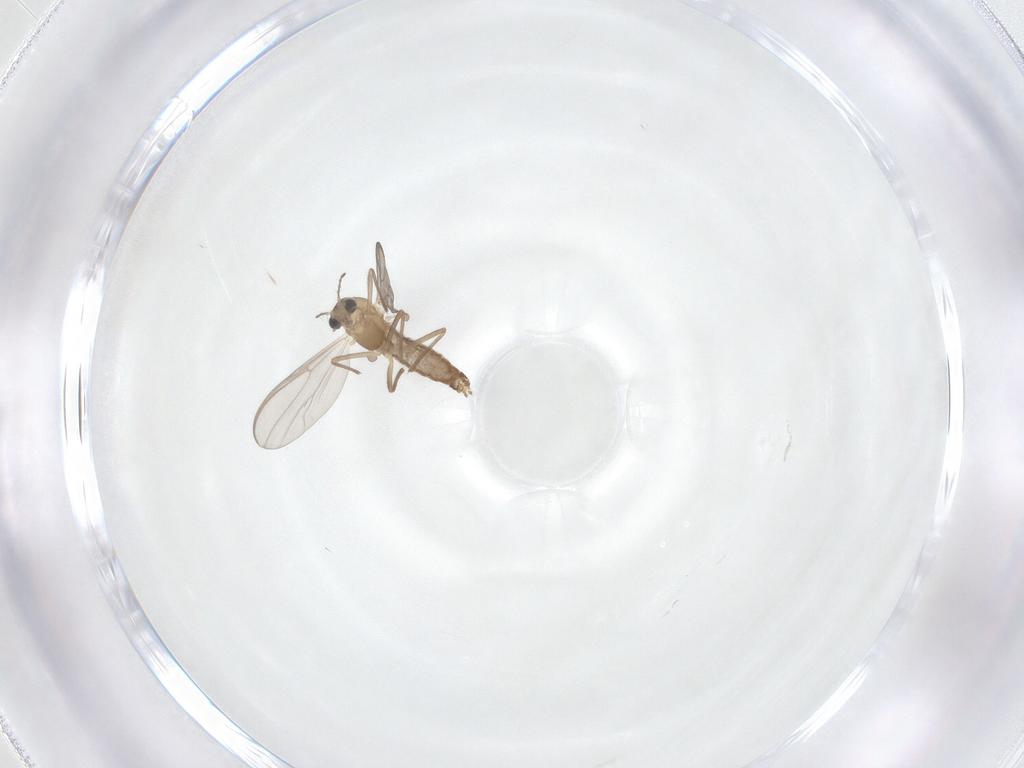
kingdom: Animalia
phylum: Arthropoda
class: Insecta
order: Diptera
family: Chironomidae
